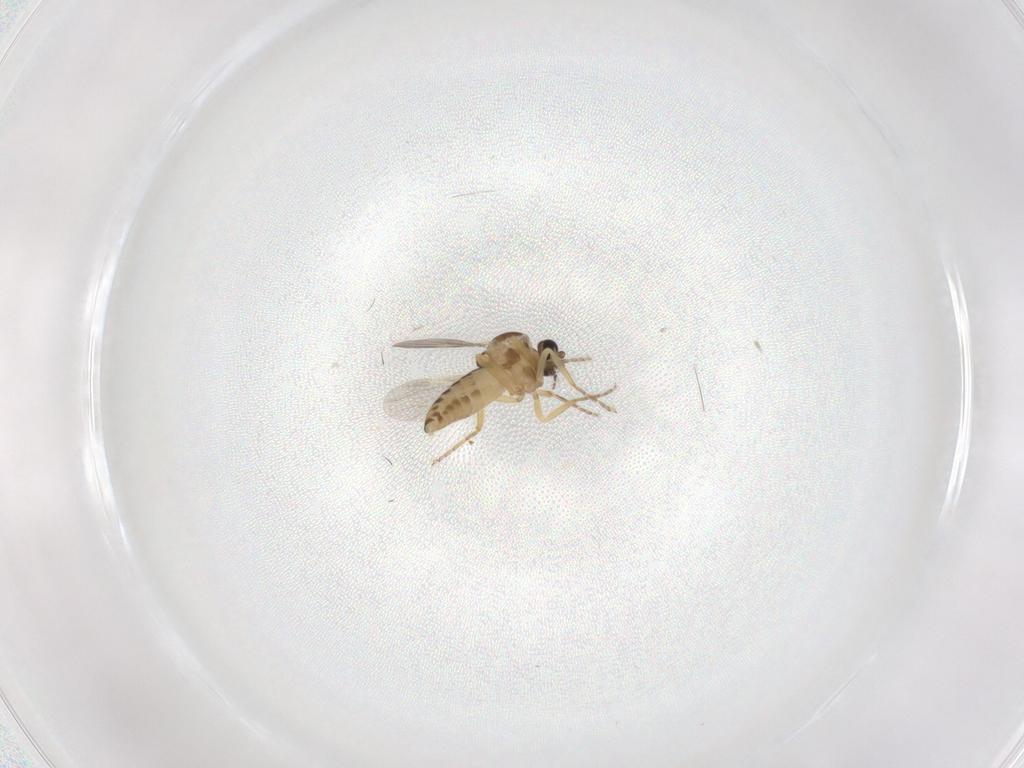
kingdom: Animalia
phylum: Arthropoda
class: Insecta
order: Diptera
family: Ceratopogonidae
